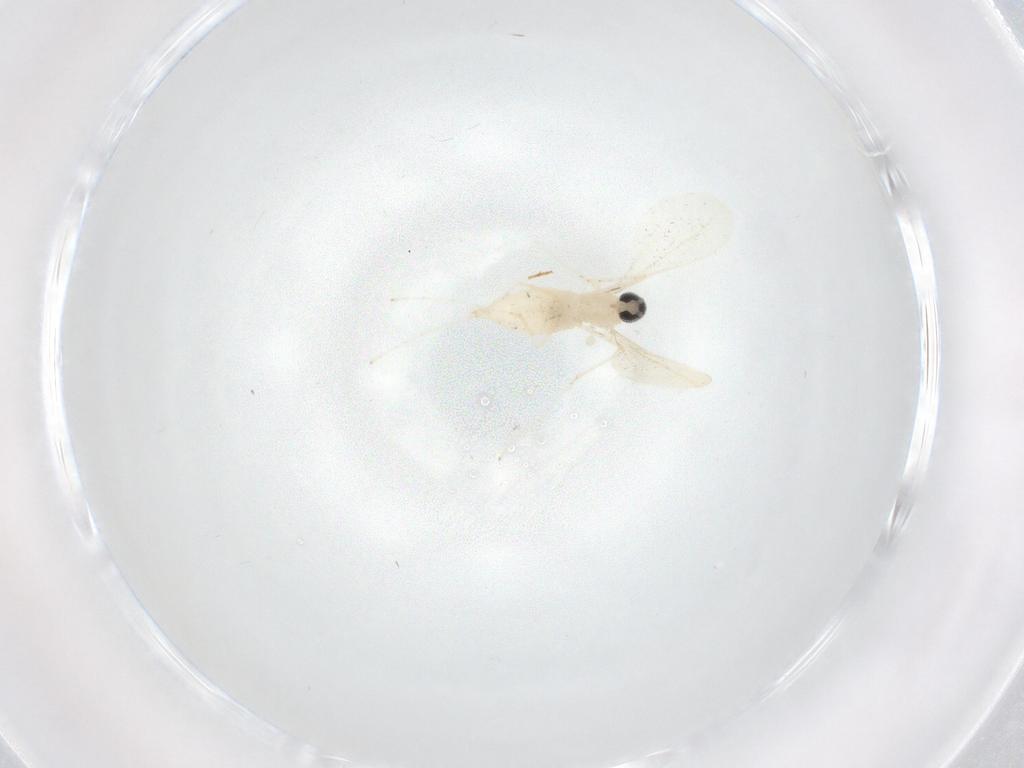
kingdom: Animalia
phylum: Arthropoda
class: Insecta
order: Diptera
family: Cecidomyiidae
